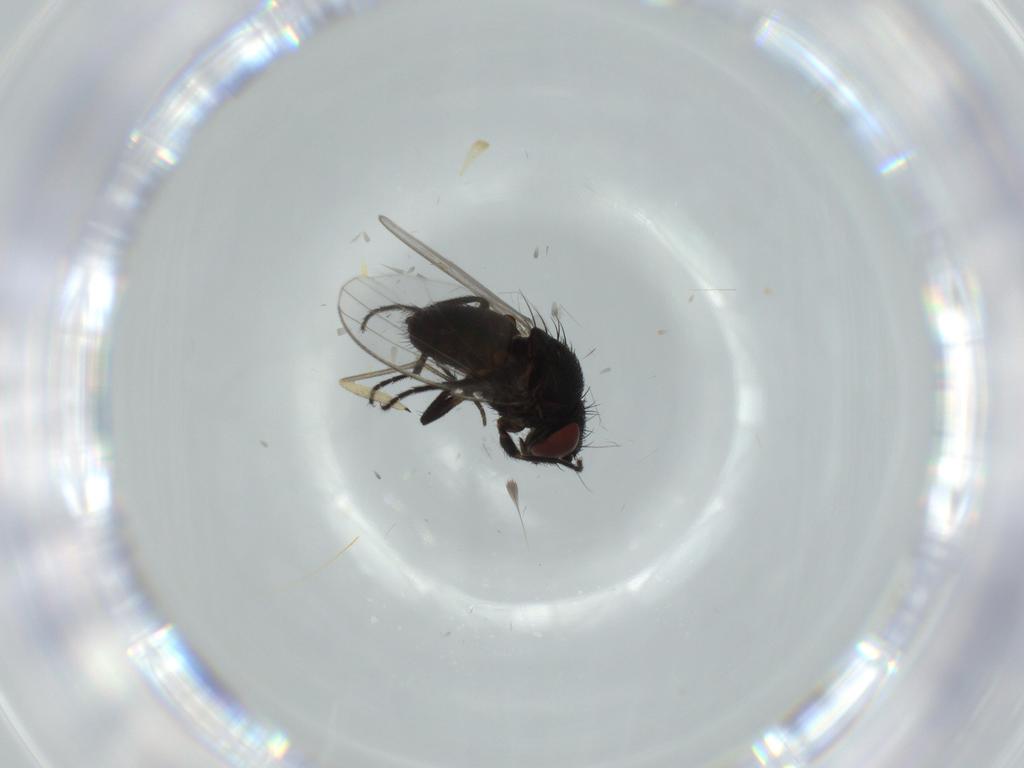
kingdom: Animalia
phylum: Arthropoda
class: Insecta
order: Diptera
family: Milichiidae
